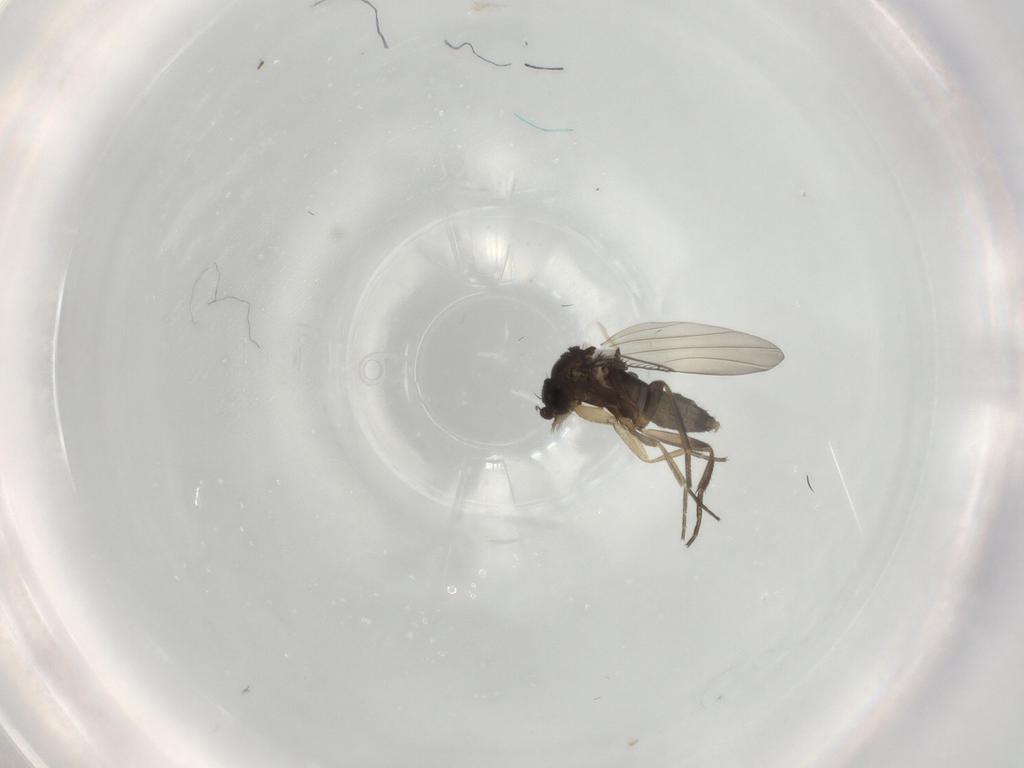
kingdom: Animalia
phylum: Arthropoda
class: Insecta
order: Diptera
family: Phoridae
